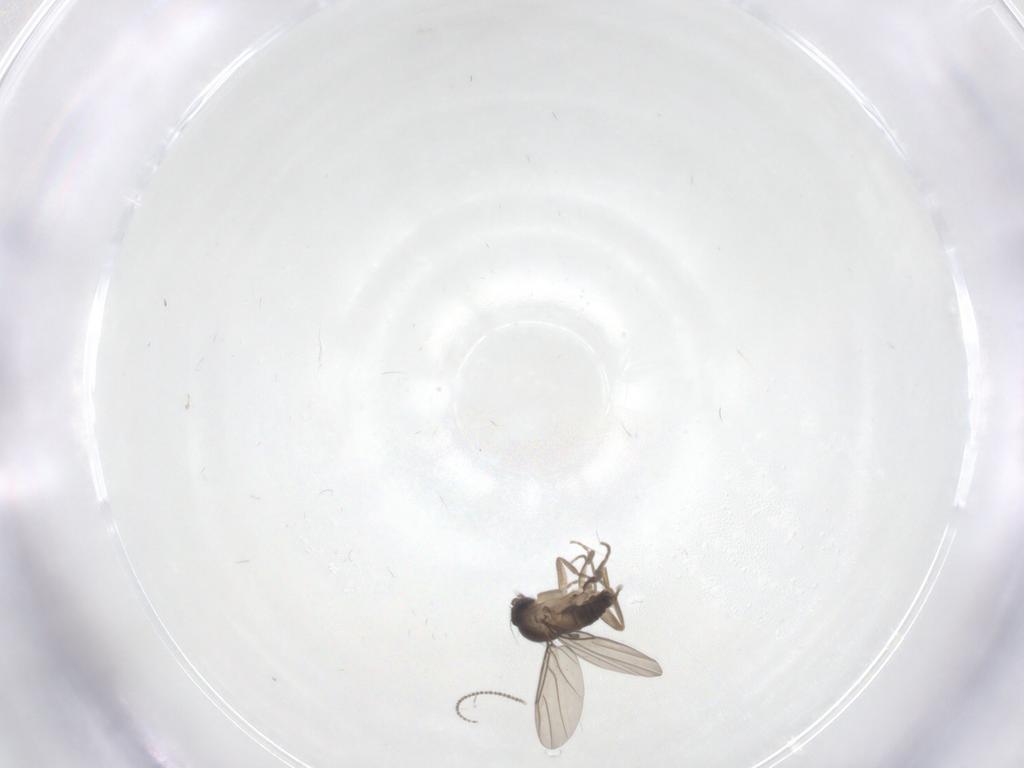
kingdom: Animalia
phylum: Arthropoda
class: Insecta
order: Diptera
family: Phoridae
